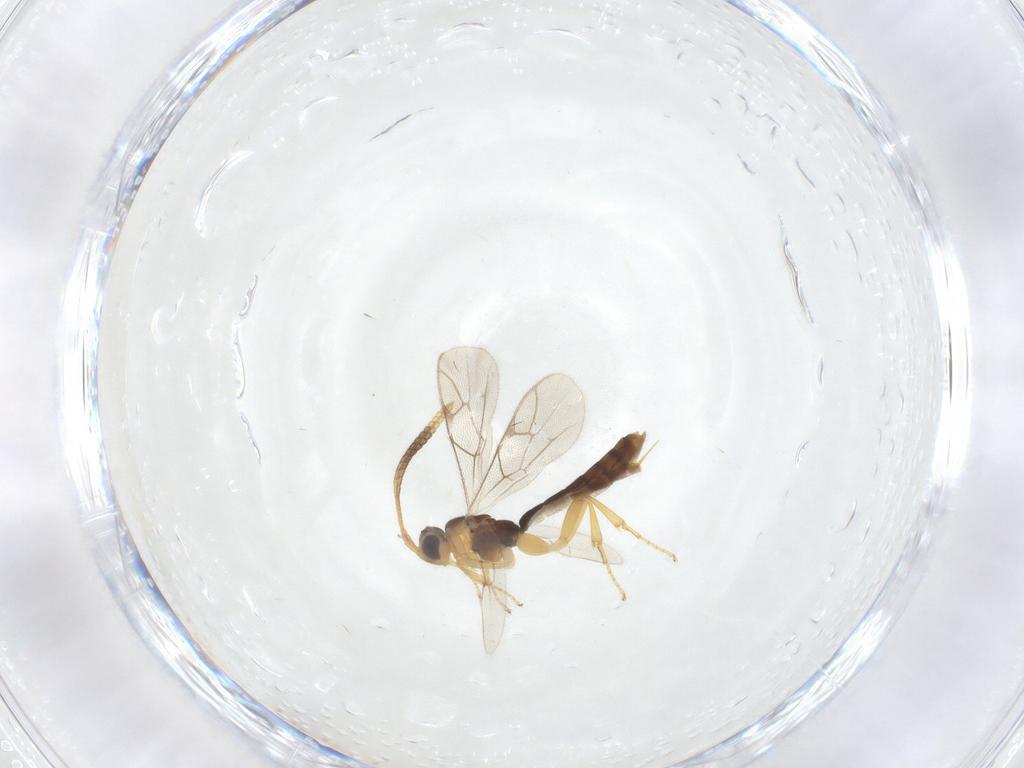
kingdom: Animalia
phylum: Arthropoda
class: Insecta
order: Hymenoptera
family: Ichneumonidae
